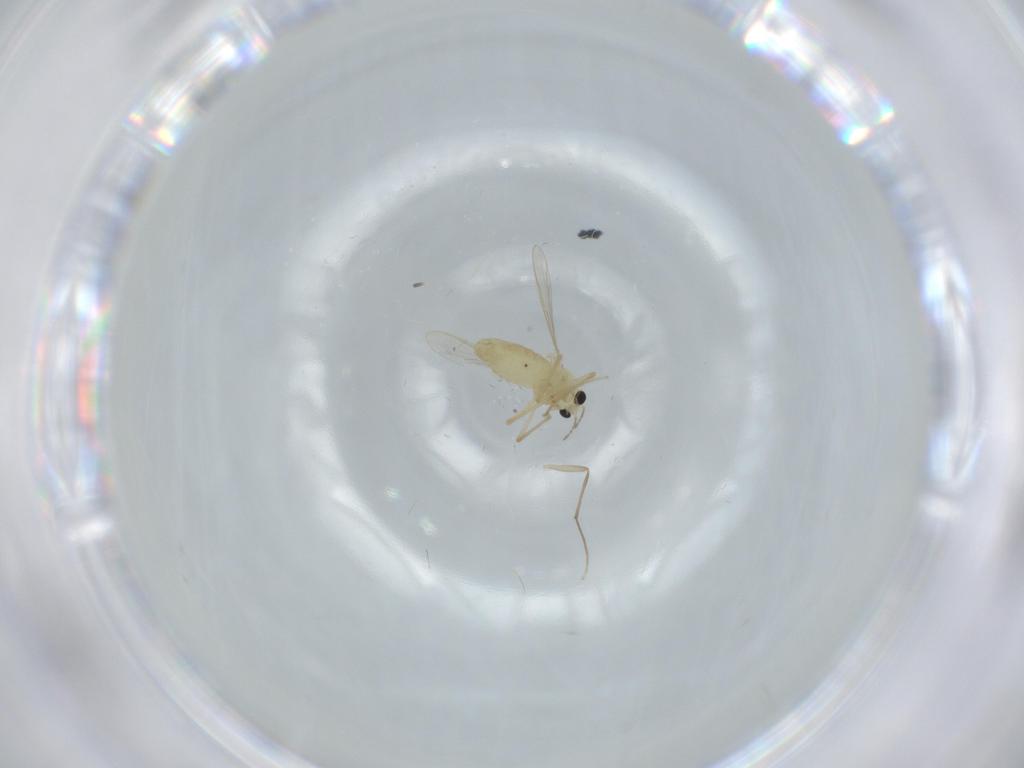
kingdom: Animalia
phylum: Arthropoda
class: Insecta
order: Diptera
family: Chironomidae
